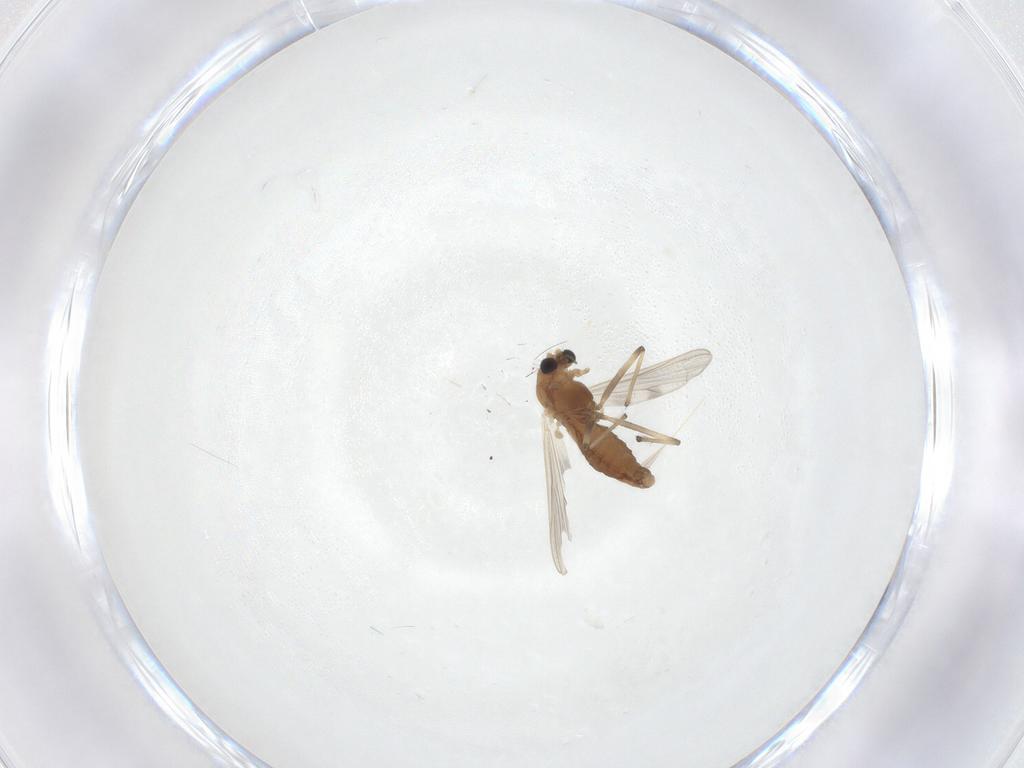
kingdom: Animalia
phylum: Arthropoda
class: Insecta
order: Diptera
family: Chironomidae
